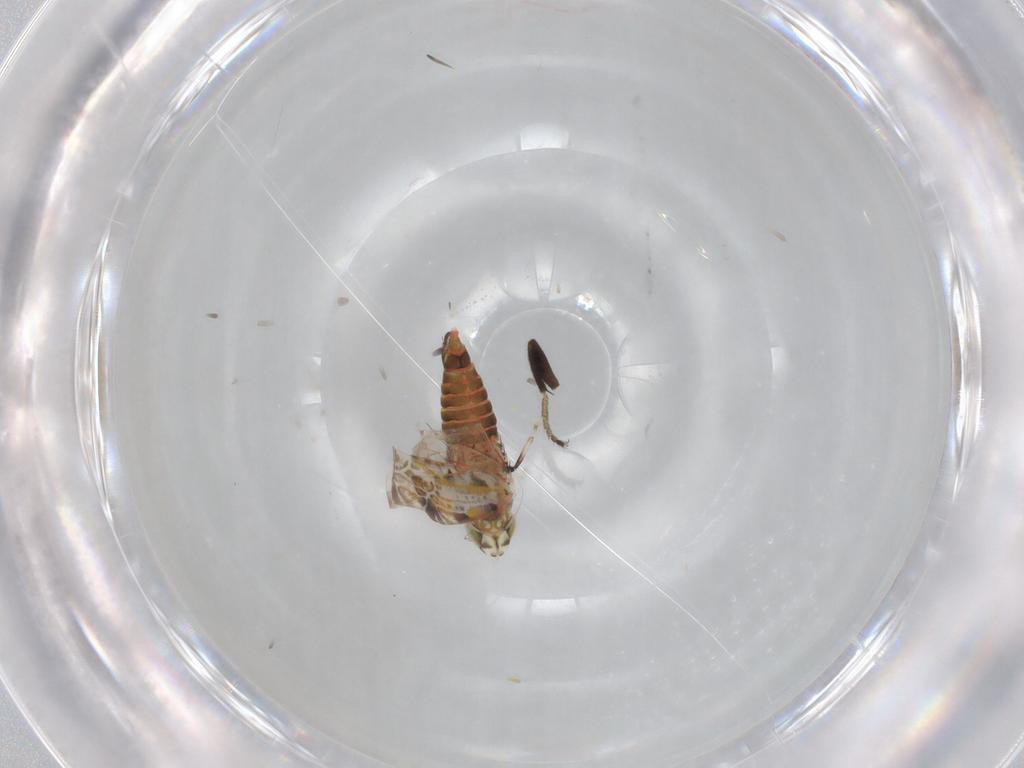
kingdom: Animalia
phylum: Arthropoda
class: Insecta
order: Hemiptera
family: Cicadellidae
